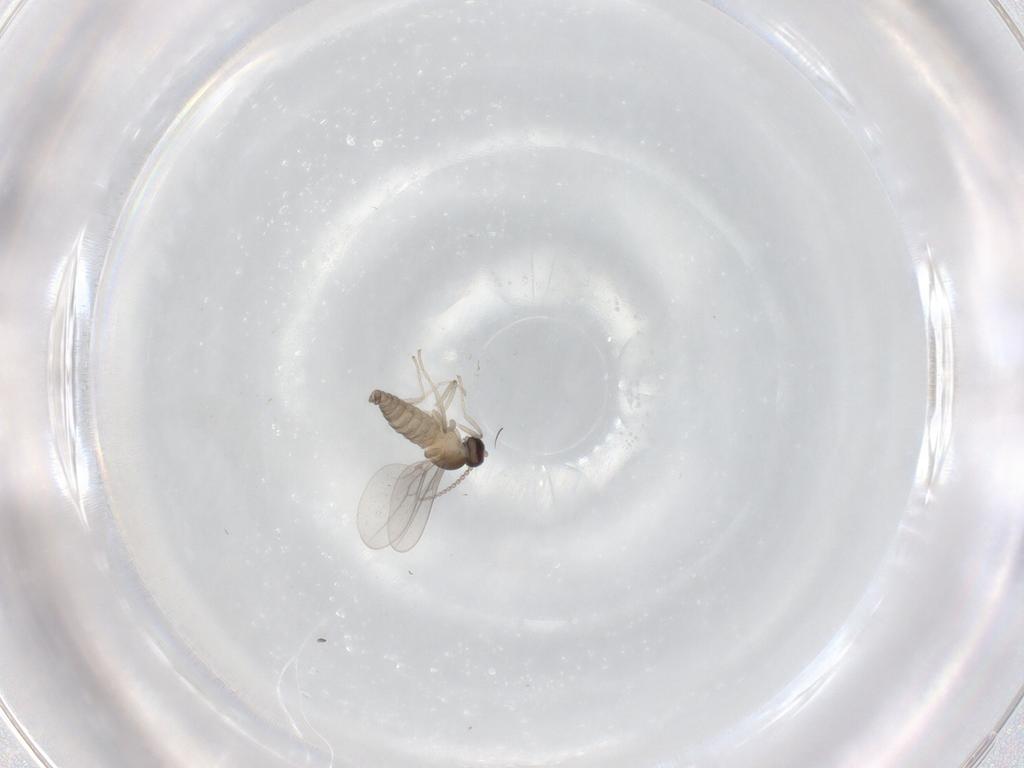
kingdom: Animalia
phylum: Arthropoda
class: Insecta
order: Diptera
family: Cecidomyiidae
